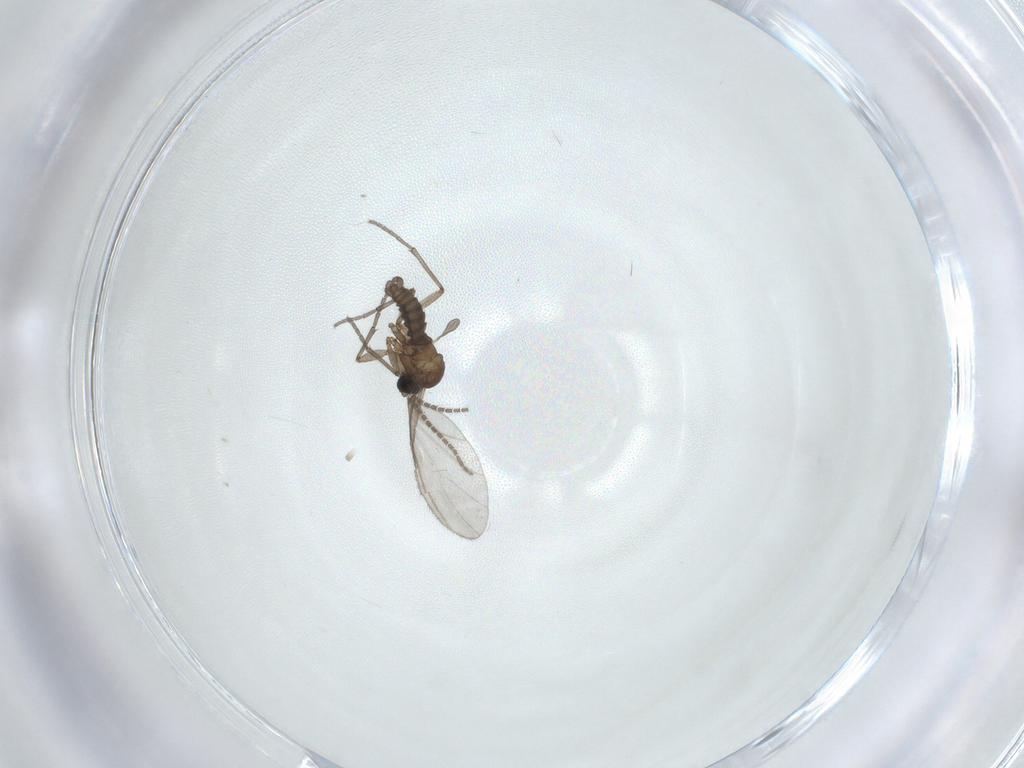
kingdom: Animalia
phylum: Arthropoda
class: Insecta
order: Diptera
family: Sciaridae
